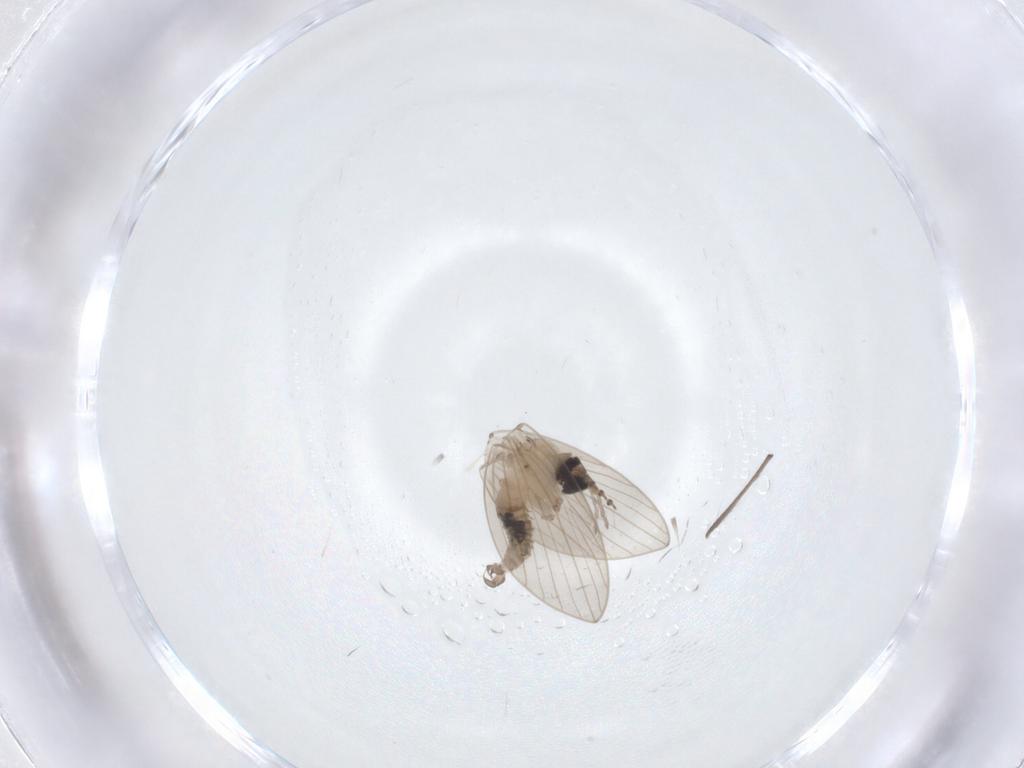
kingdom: Animalia
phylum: Arthropoda
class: Insecta
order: Diptera
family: Psychodidae
